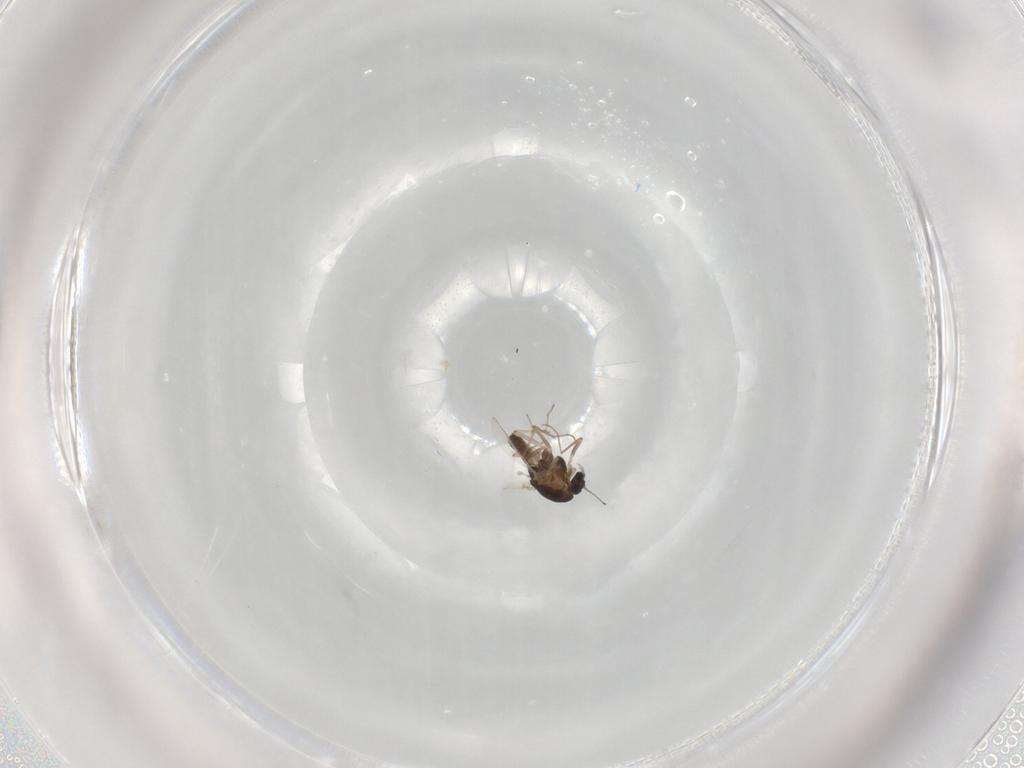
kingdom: Animalia
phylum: Arthropoda
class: Insecta
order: Diptera
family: Chironomidae
